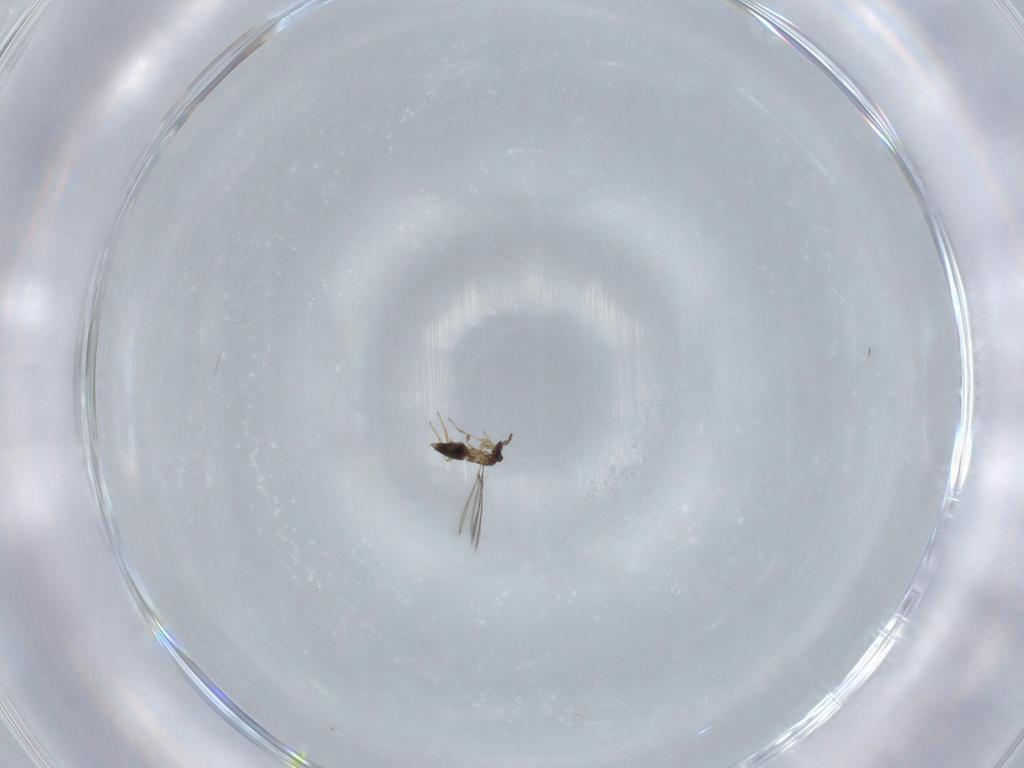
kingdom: Animalia
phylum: Arthropoda
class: Insecta
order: Hymenoptera
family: Mymaridae
